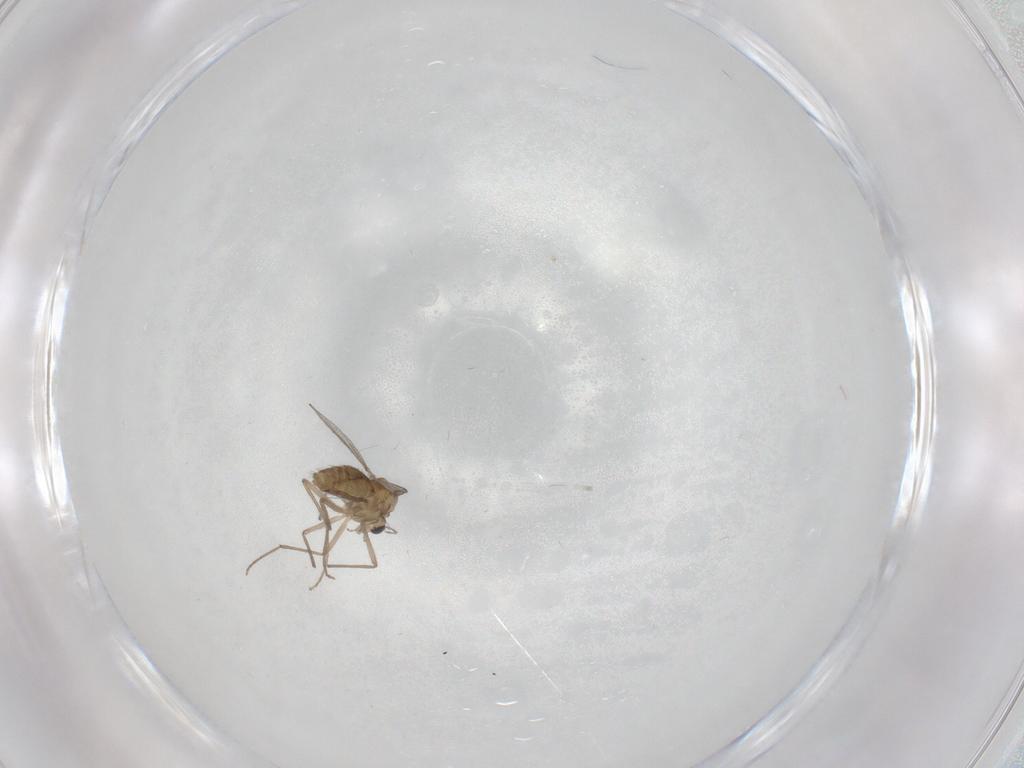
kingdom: Animalia
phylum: Arthropoda
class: Insecta
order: Diptera
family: Chironomidae
